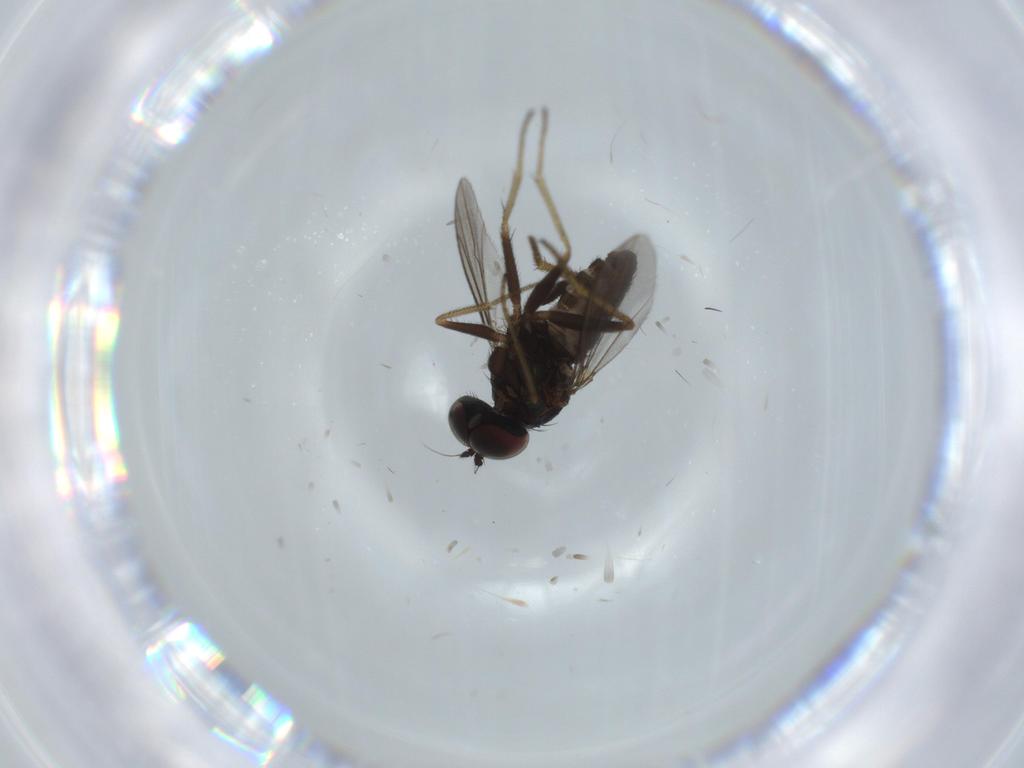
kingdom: Animalia
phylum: Arthropoda
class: Insecta
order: Diptera
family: Phoridae
